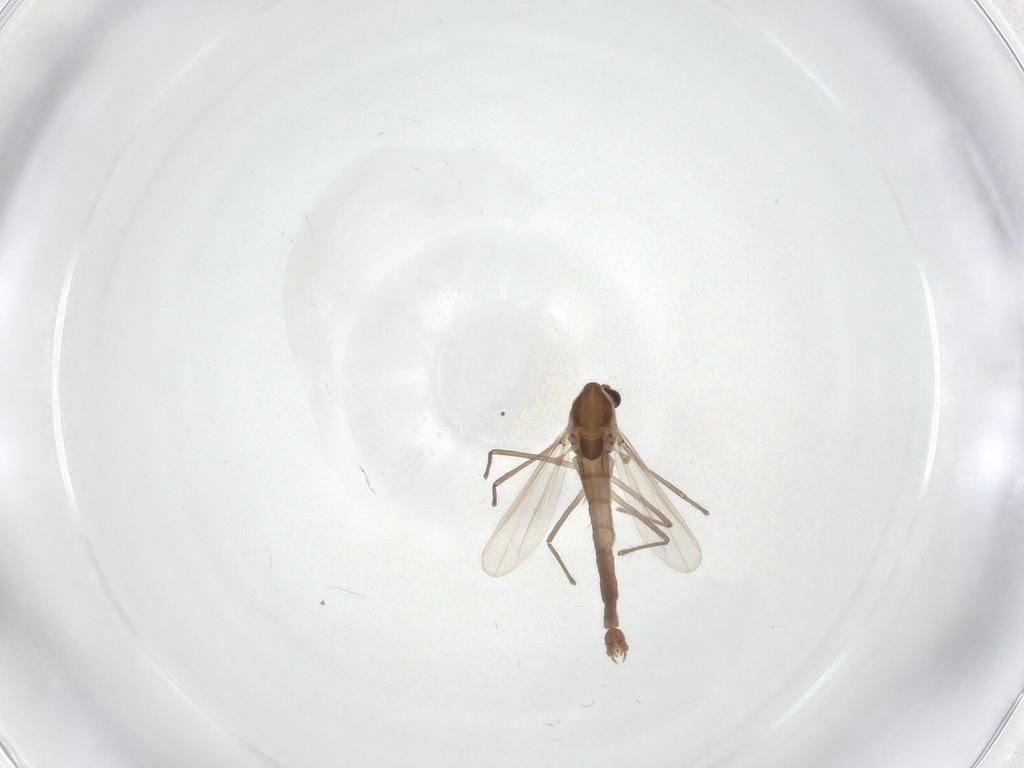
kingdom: Animalia
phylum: Arthropoda
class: Insecta
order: Diptera
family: Chironomidae
